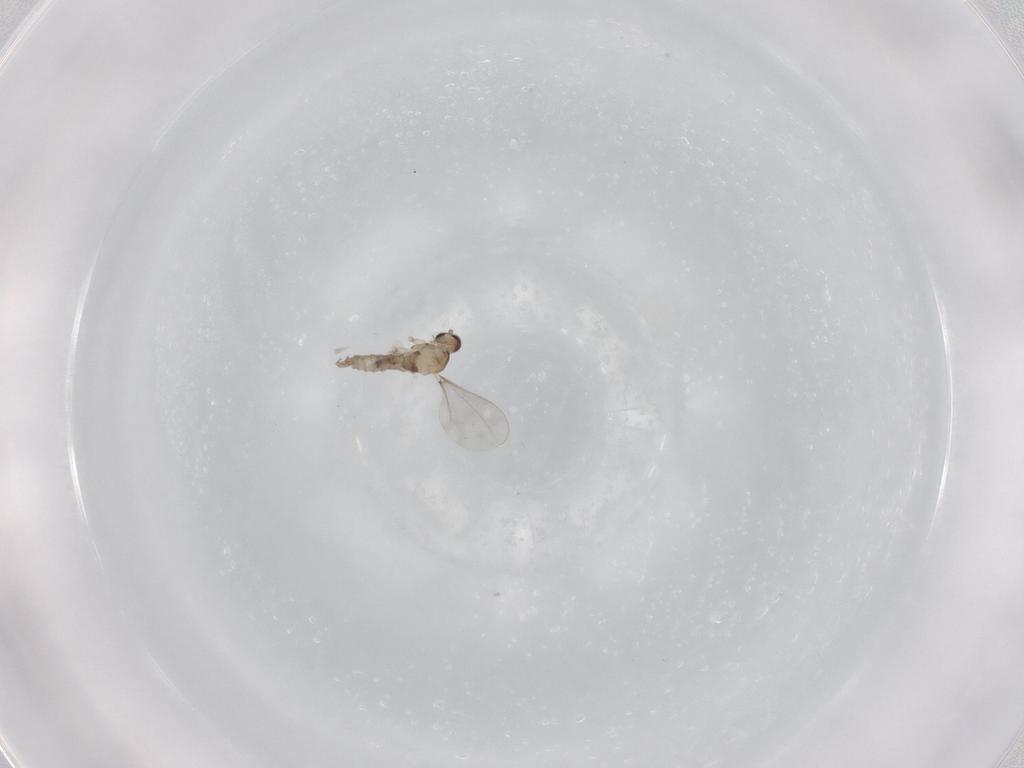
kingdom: Animalia
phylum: Arthropoda
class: Insecta
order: Diptera
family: Cecidomyiidae
